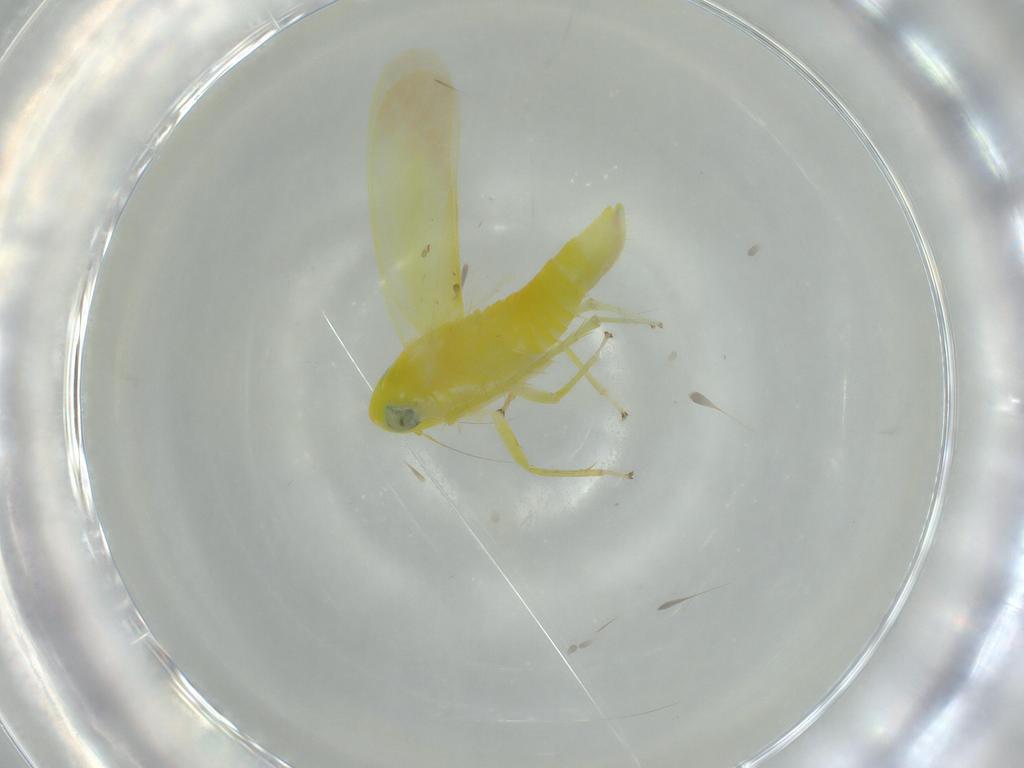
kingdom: Animalia
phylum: Arthropoda
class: Insecta
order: Hemiptera
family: Cicadellidae
